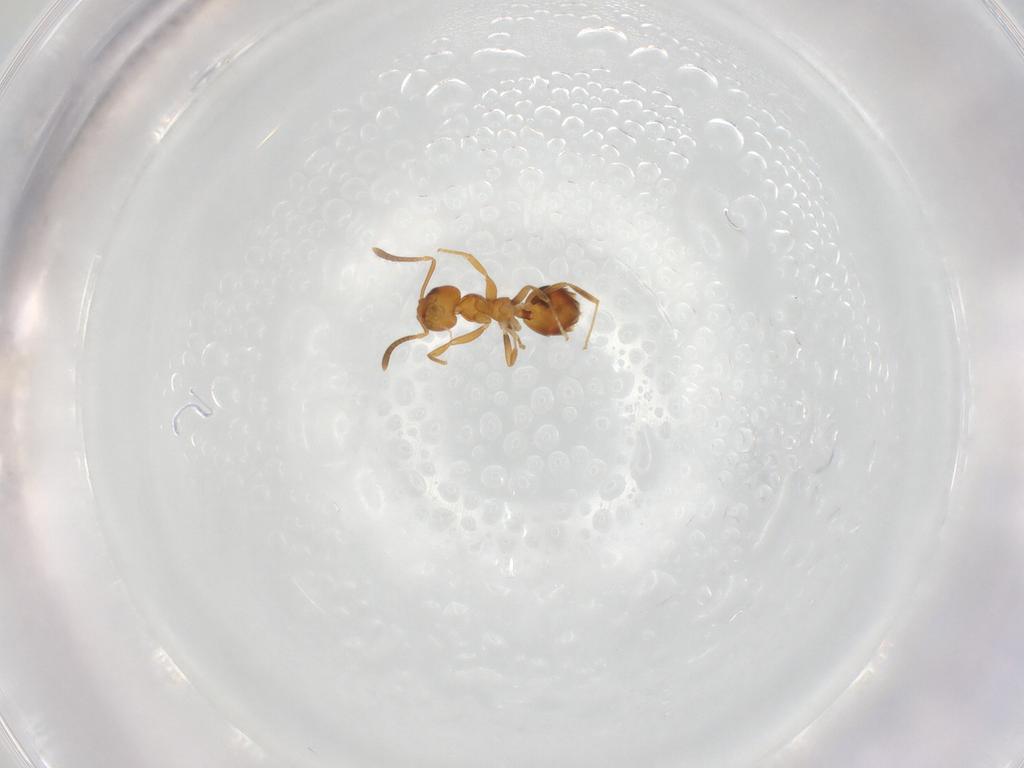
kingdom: Animalia
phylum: Arthropoda
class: Insecta
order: Hymenoptera
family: Formicidae
